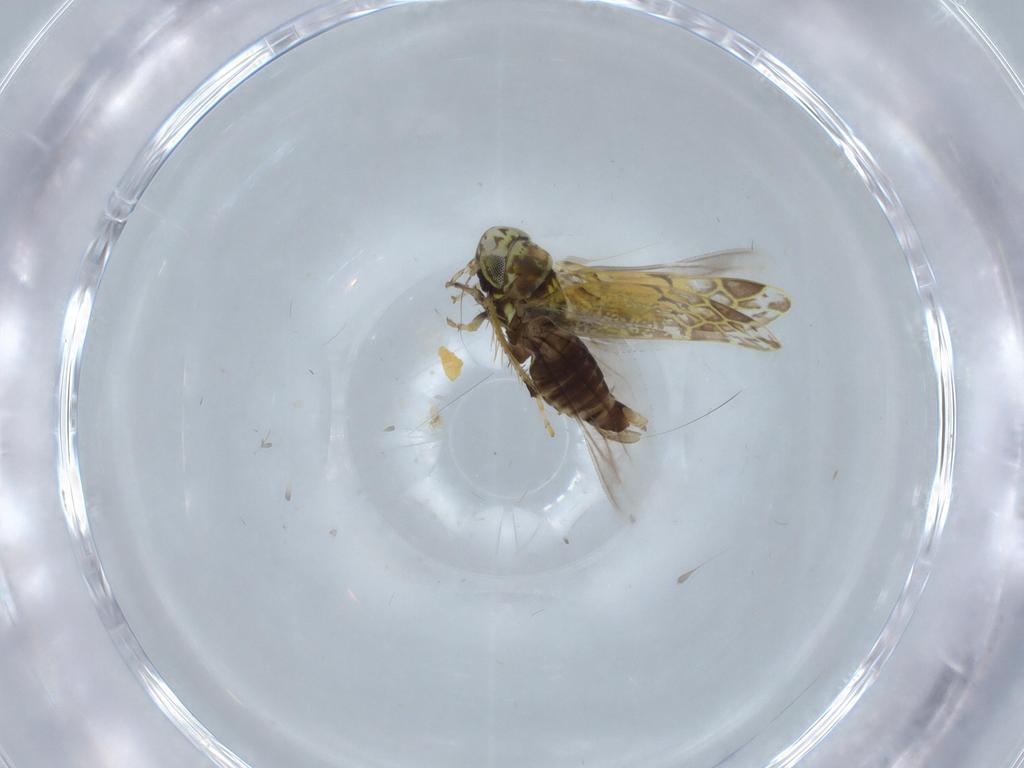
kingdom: Animalia
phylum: Arthropoda
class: Insecta
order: Hemiptera
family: Cicadellidae
